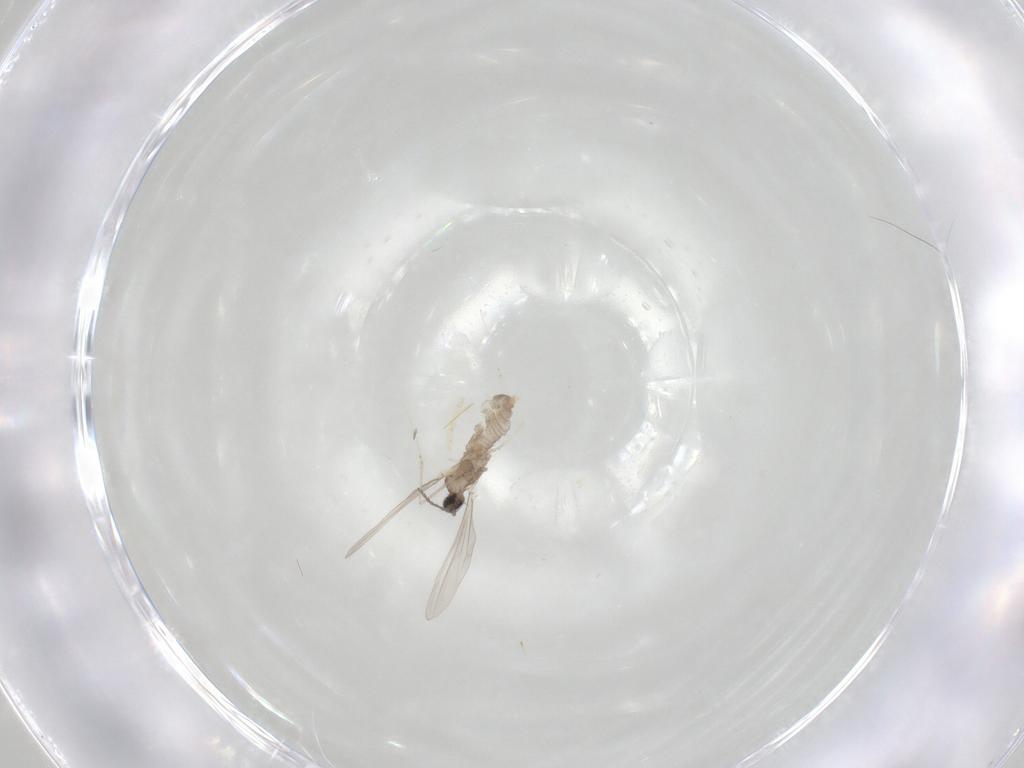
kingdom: Animalia
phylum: Arthropoda
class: Insecta
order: Diptera
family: Cecidomyiidae
